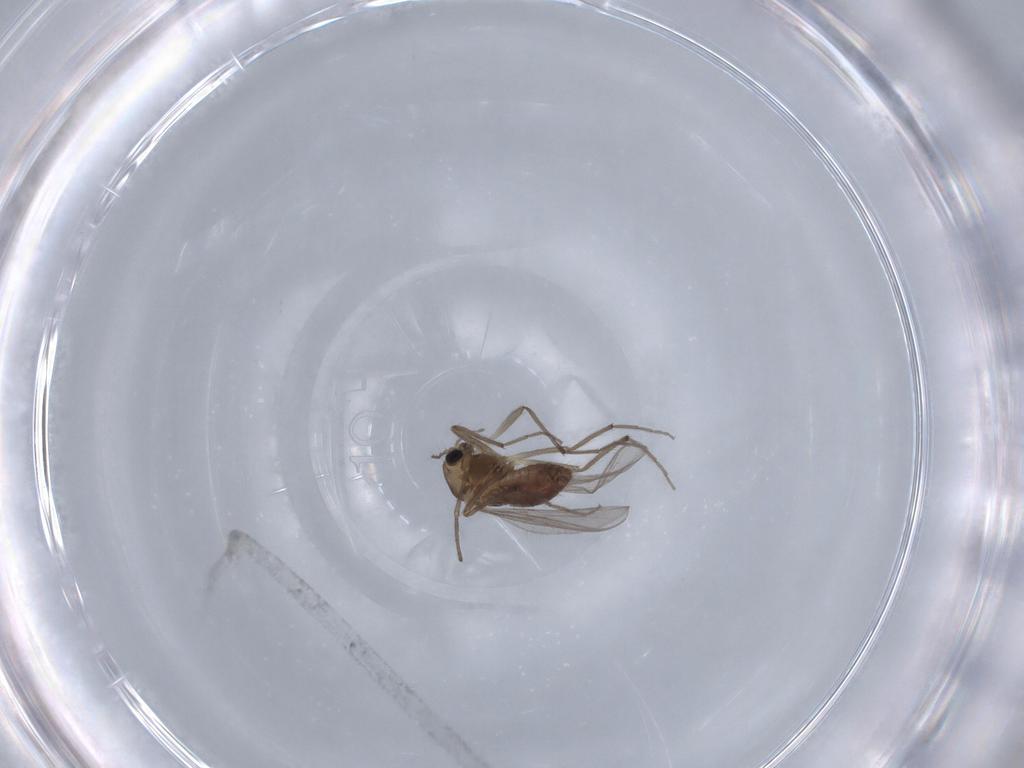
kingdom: Animalia
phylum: Arthropoda
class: Insecta
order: Diptera
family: Chironomidae
